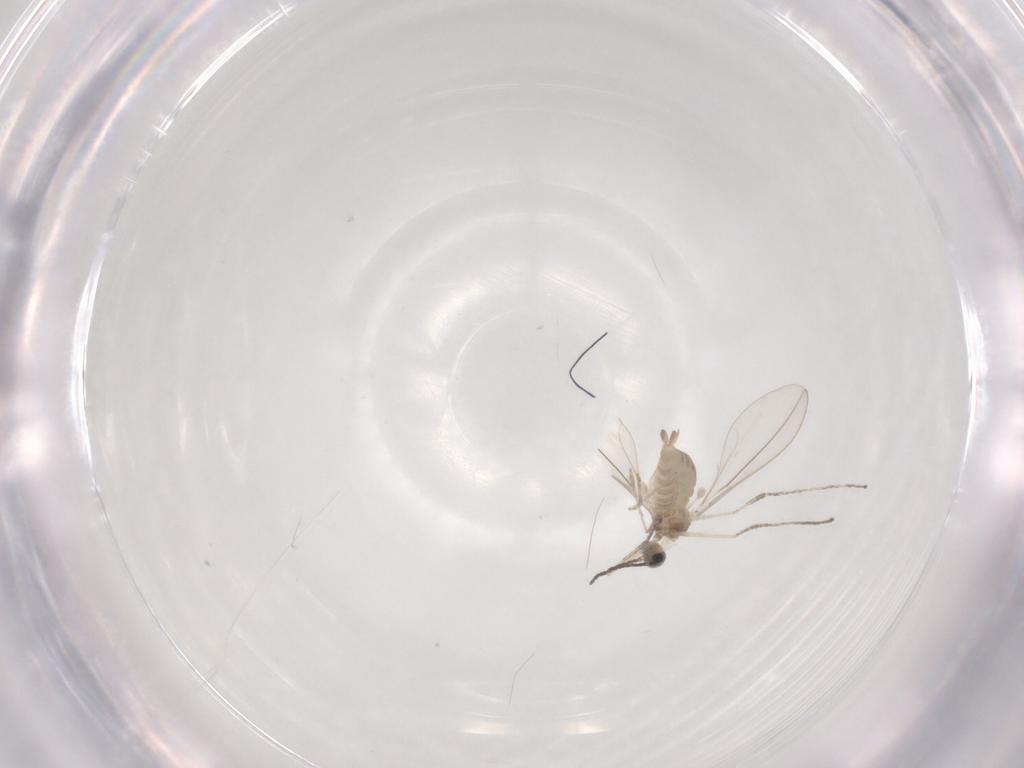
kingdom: Animalia
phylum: Arthropoda
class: Insecta
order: Diptera
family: Cecidomyiidae
